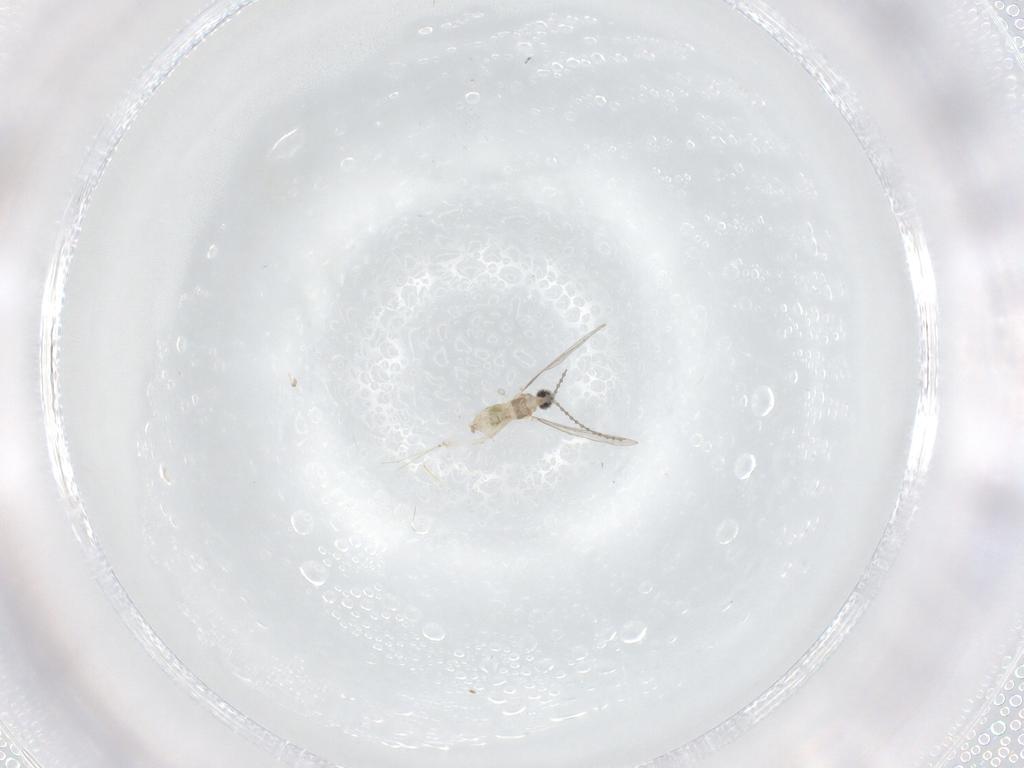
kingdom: Animalia
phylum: Arthropoda
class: Insecta
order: Diptera
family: Cecidomyiidae
